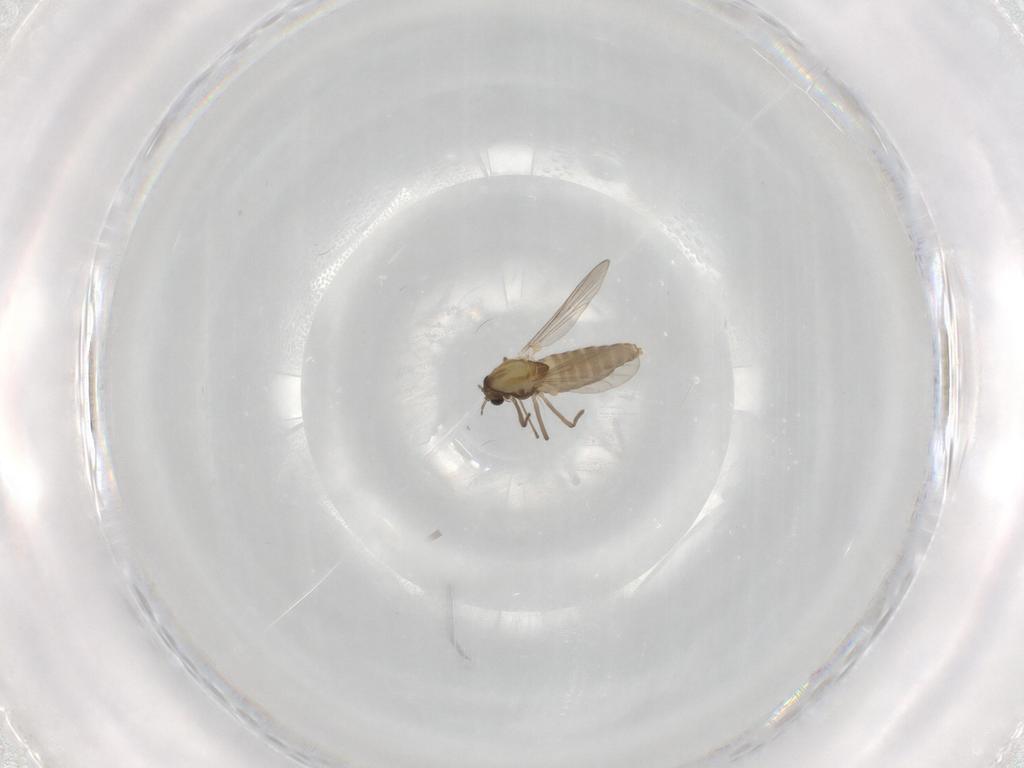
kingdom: Animalia
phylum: Arthropoda
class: Insecta
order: Diptera
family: Chironomidae
